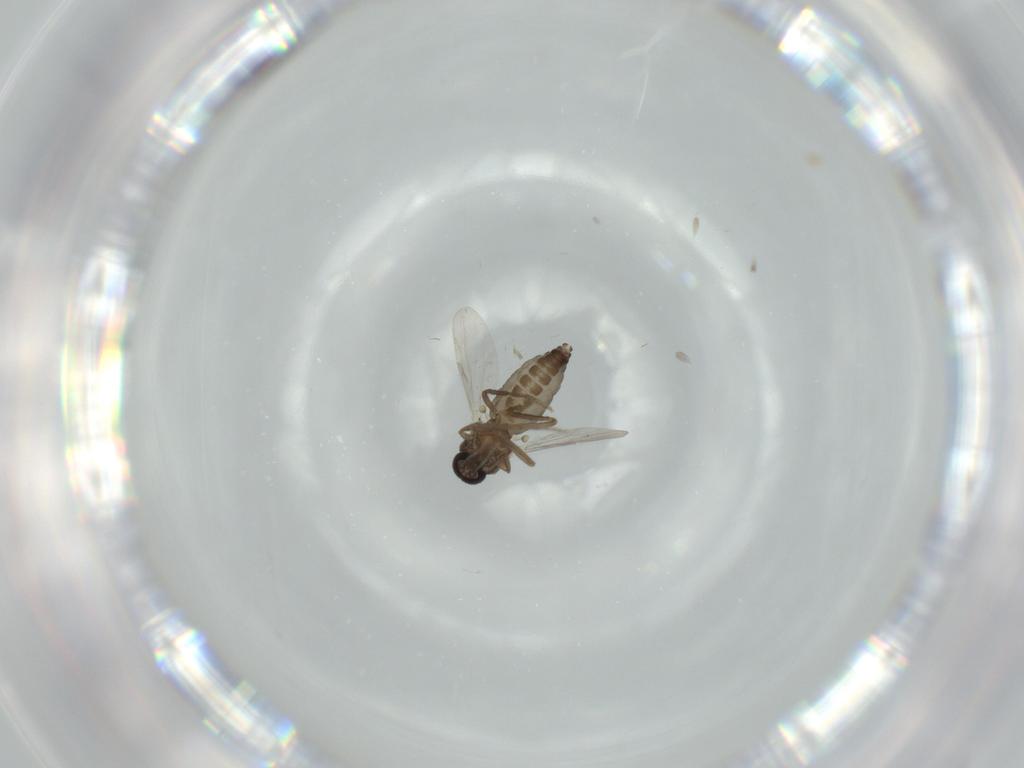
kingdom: Animalia
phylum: Arthropoda
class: Insecta
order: Diptera
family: Ceratopogonidae
